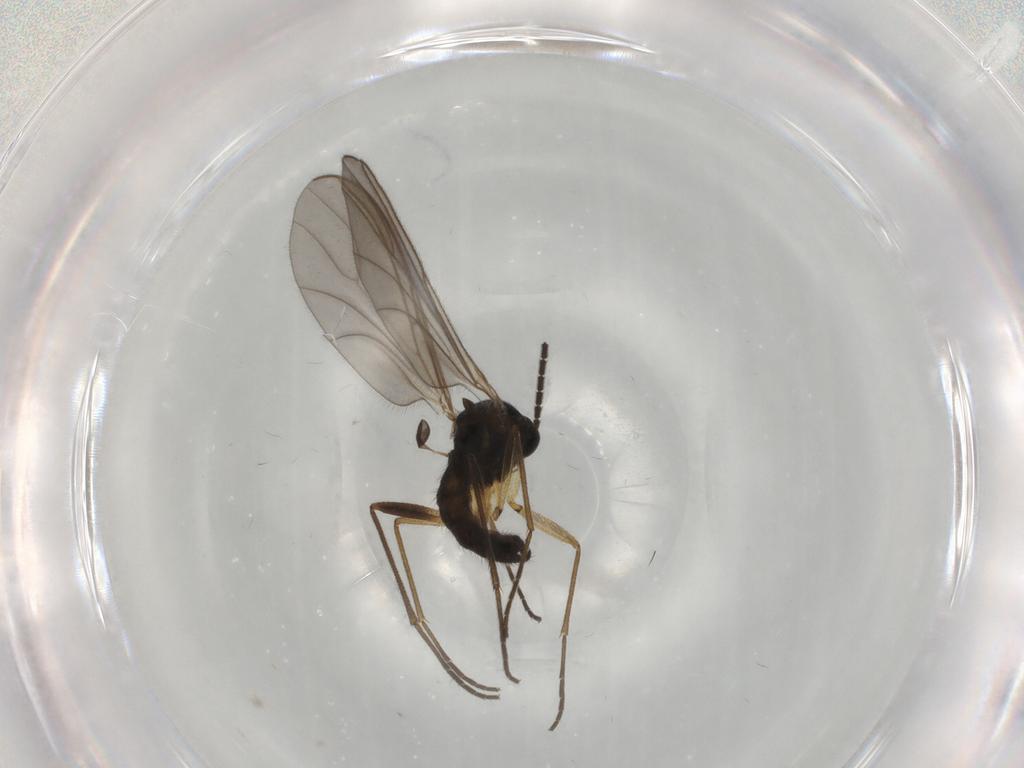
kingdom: Animalia
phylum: Arthropoda
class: Insecta
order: Diptera
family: Phoridae
